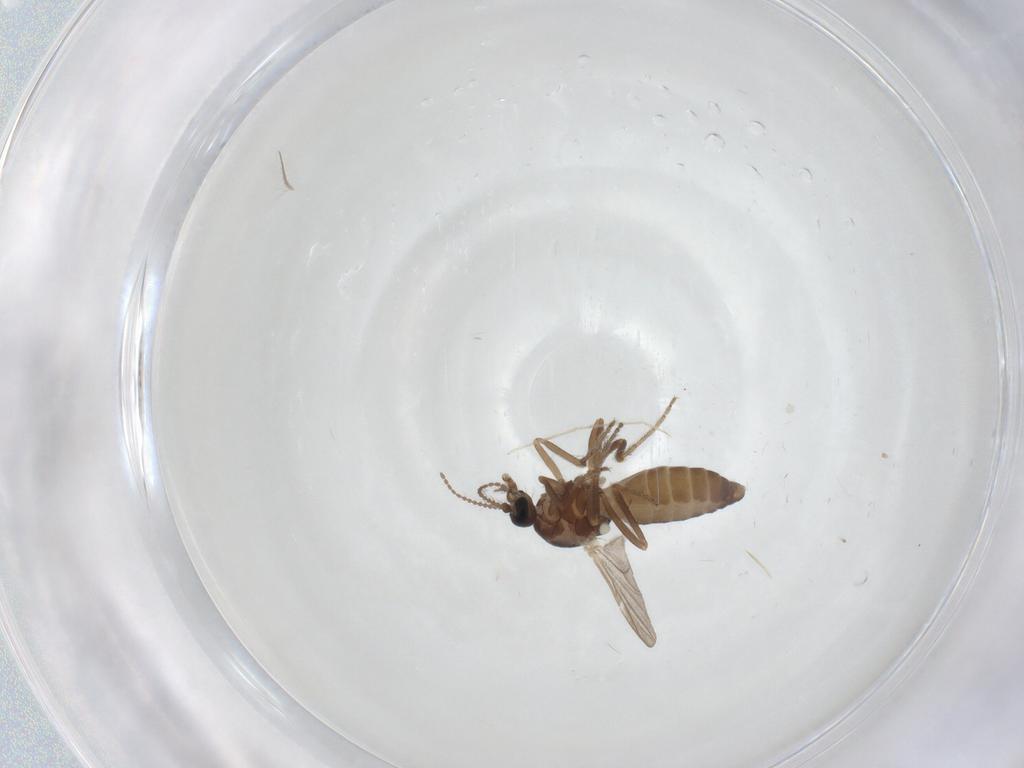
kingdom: Animalia
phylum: Arthropoda
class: Insecta
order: Diptera
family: Ceratopogonidae
